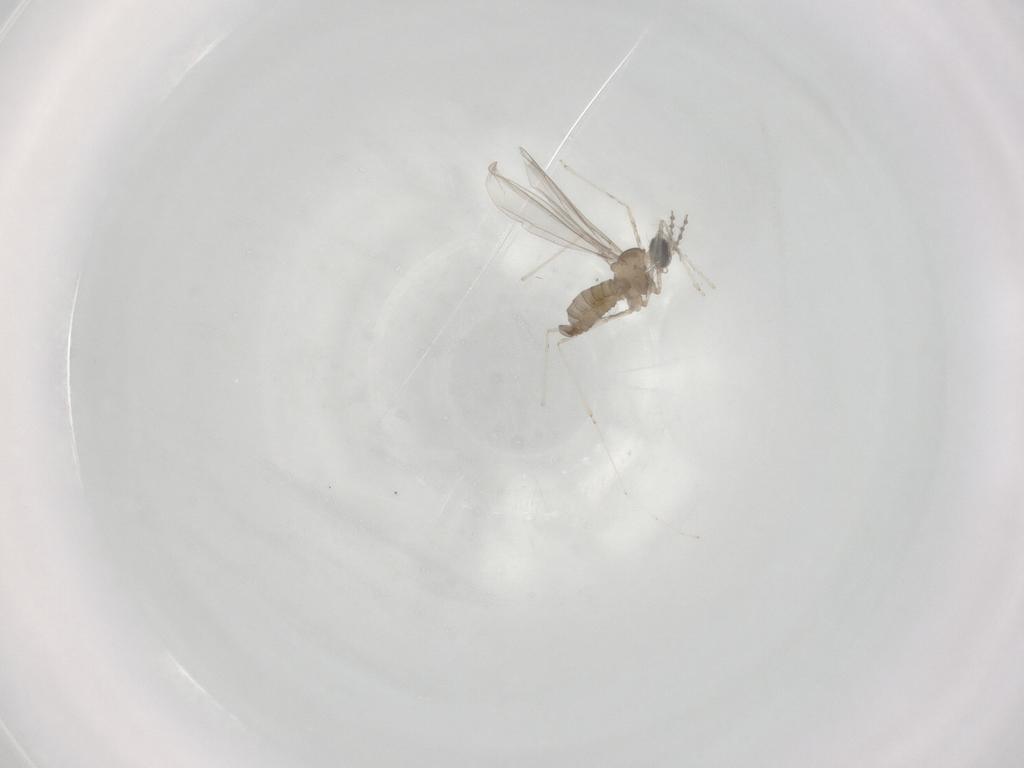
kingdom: Animalia
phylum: Arthropoda
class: Insecta
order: Diptera
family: Cecidomyiidae
